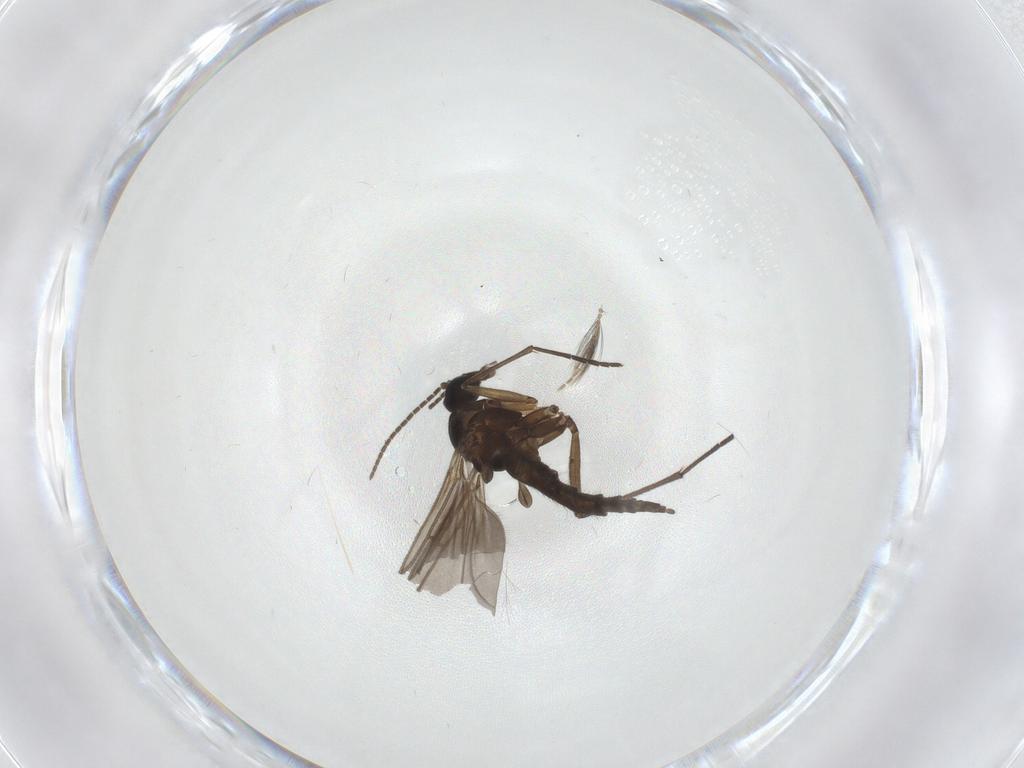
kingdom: Animalia
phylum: Arthropoda
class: Insecta
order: Diptera
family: Ceratopogonidae
